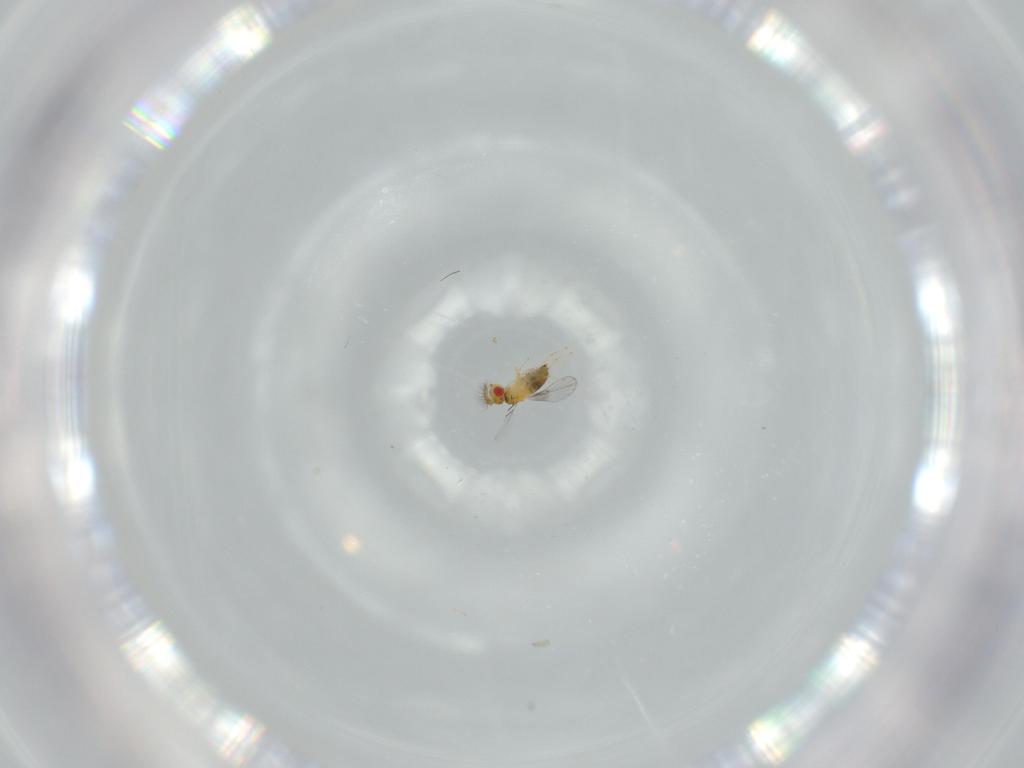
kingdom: Animalia
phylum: Arthropoda
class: Insecta
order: Hymenoptera
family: Trichogrammatidae
